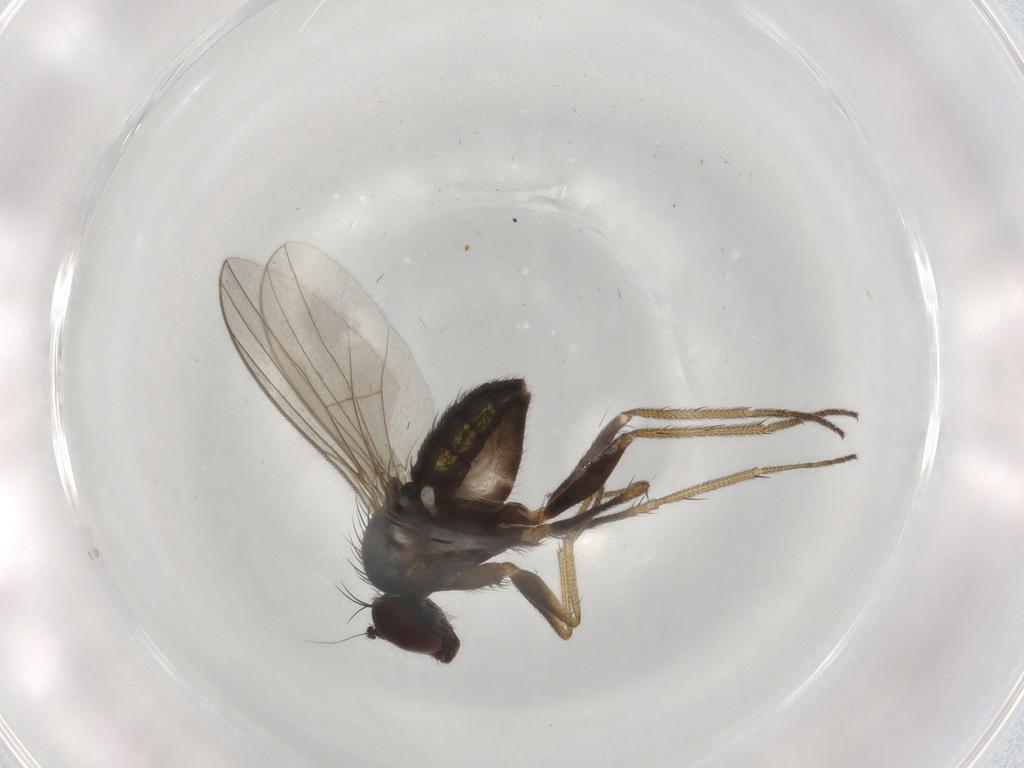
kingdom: Animalia
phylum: Arthropoda
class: Insecta
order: Diptera
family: Dolichopodidae
